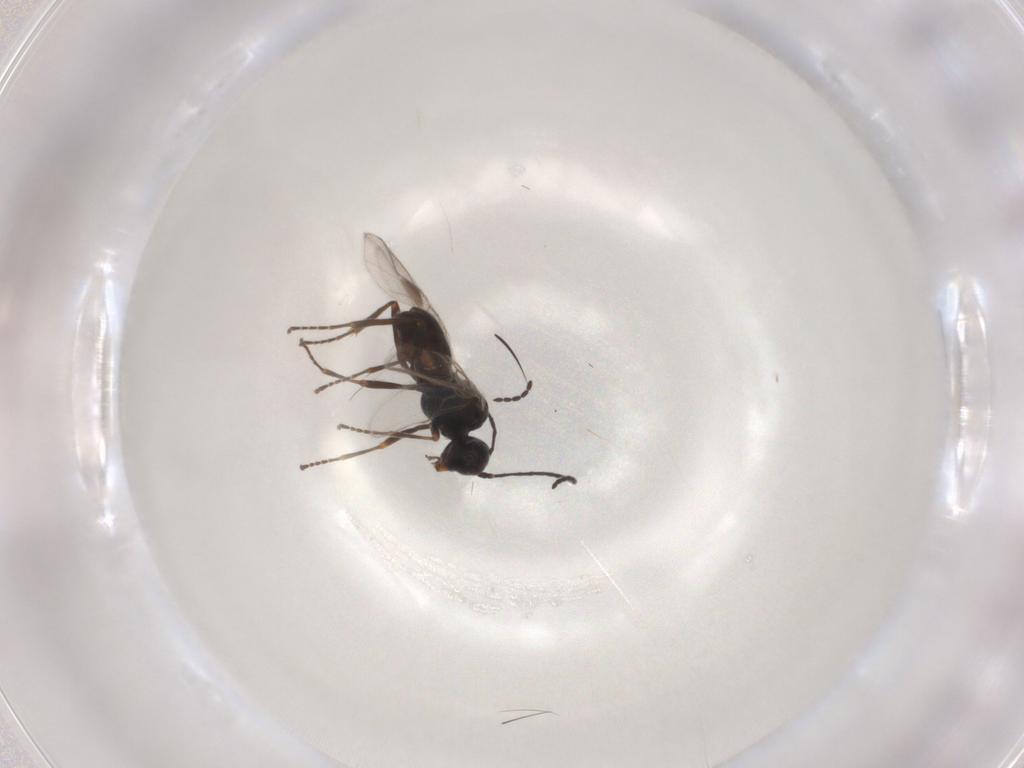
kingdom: Animalia
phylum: Arthropoda
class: Insecta
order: Hymenoptera
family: Braconidae
